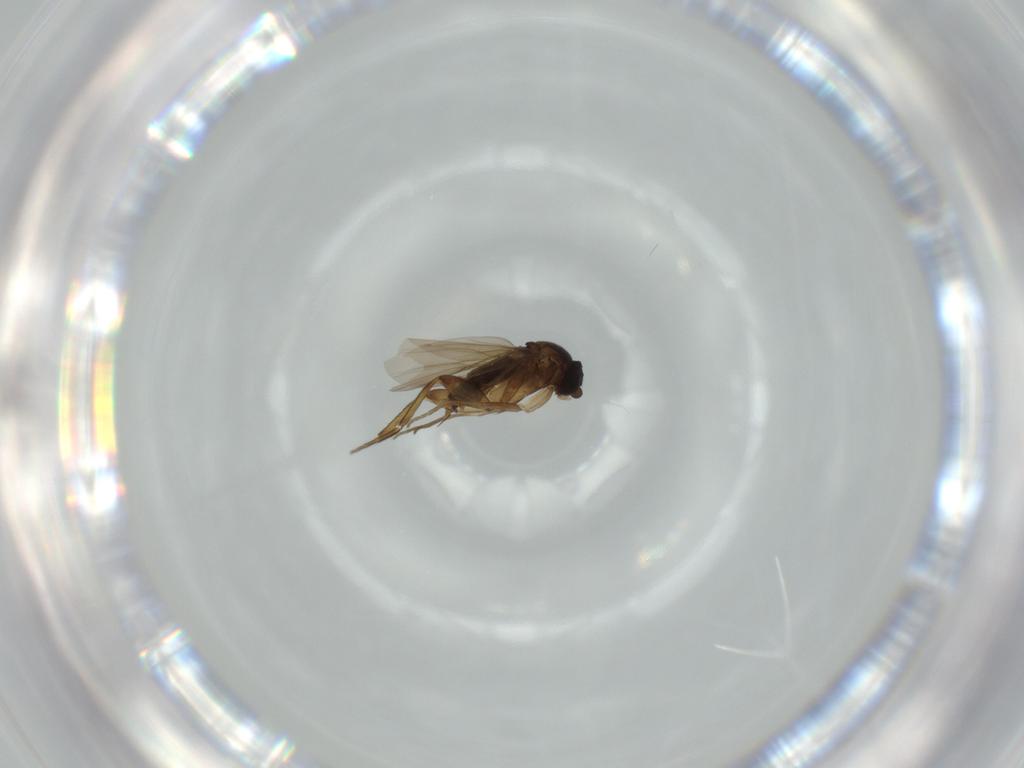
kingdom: Animalia
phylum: Arthropoda
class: Insecta
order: Diptera
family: Phoridae
